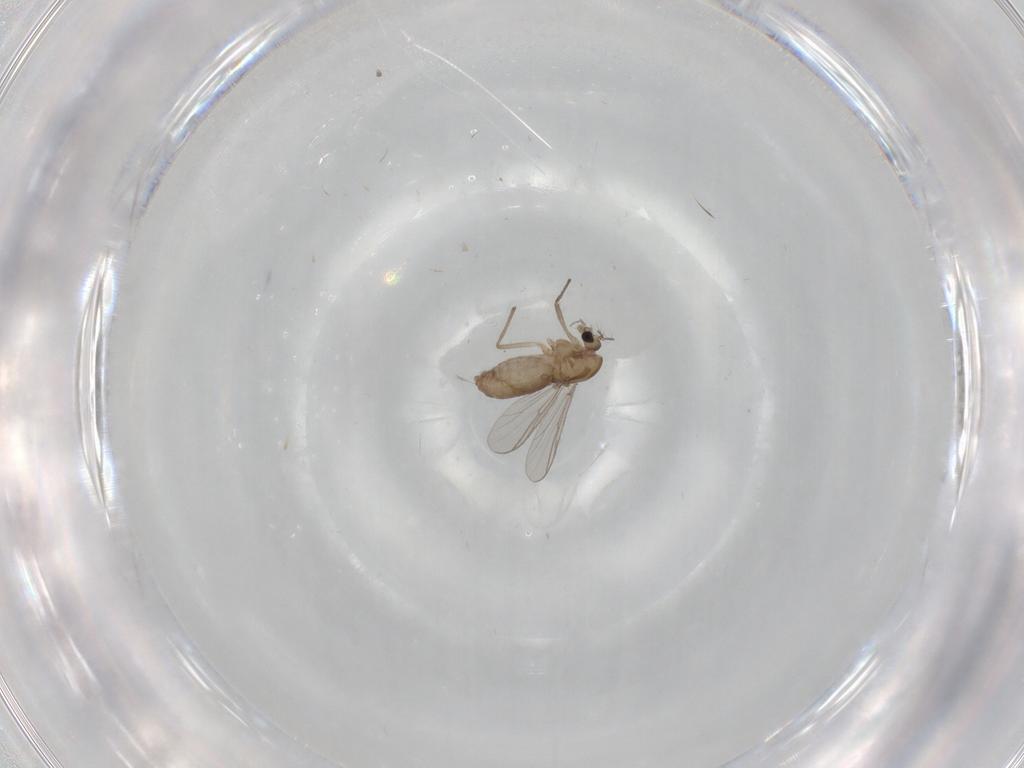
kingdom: Animalia
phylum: Arthropoda
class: Insecta
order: Diptera
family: Chironomidae
